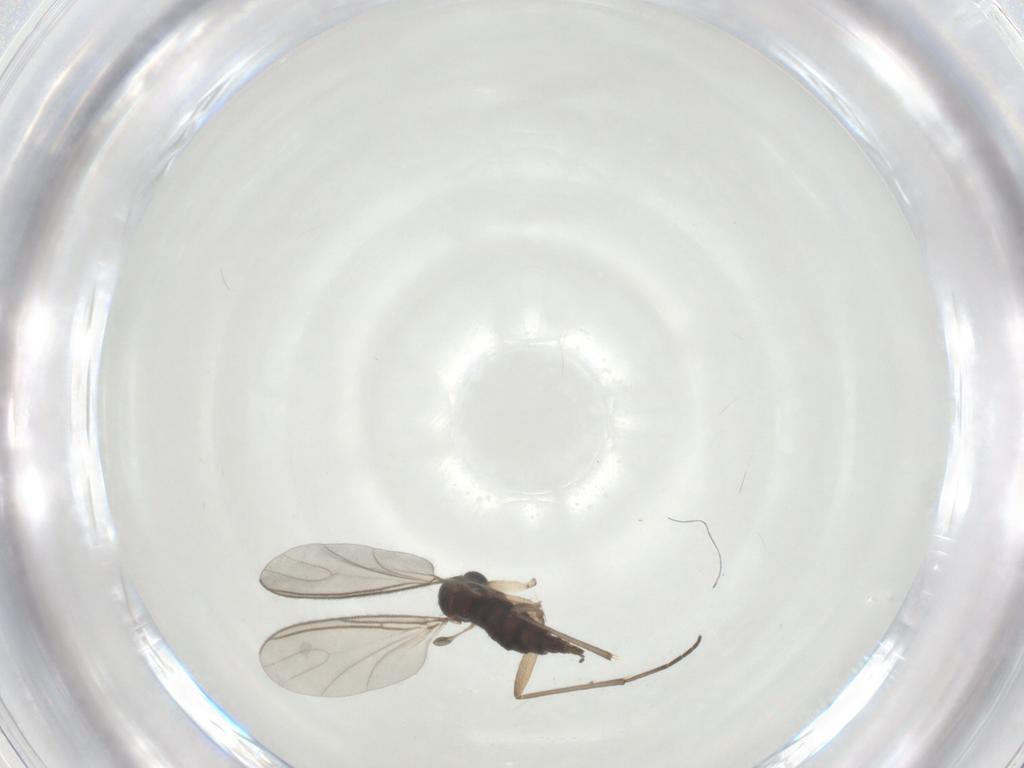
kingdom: Animalia
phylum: Arthropoda
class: Insecta
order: Diptera
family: Sciaridae
